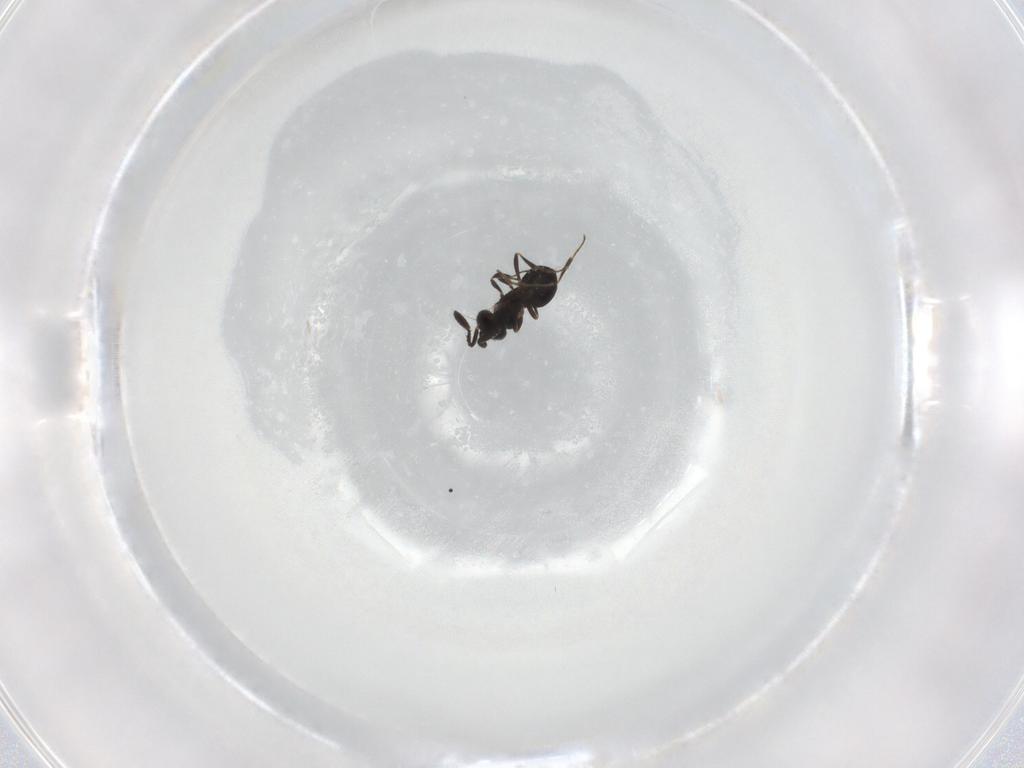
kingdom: Animalia
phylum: Arthropoda
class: Insecta
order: Hymenoptera
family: Scelionidae
